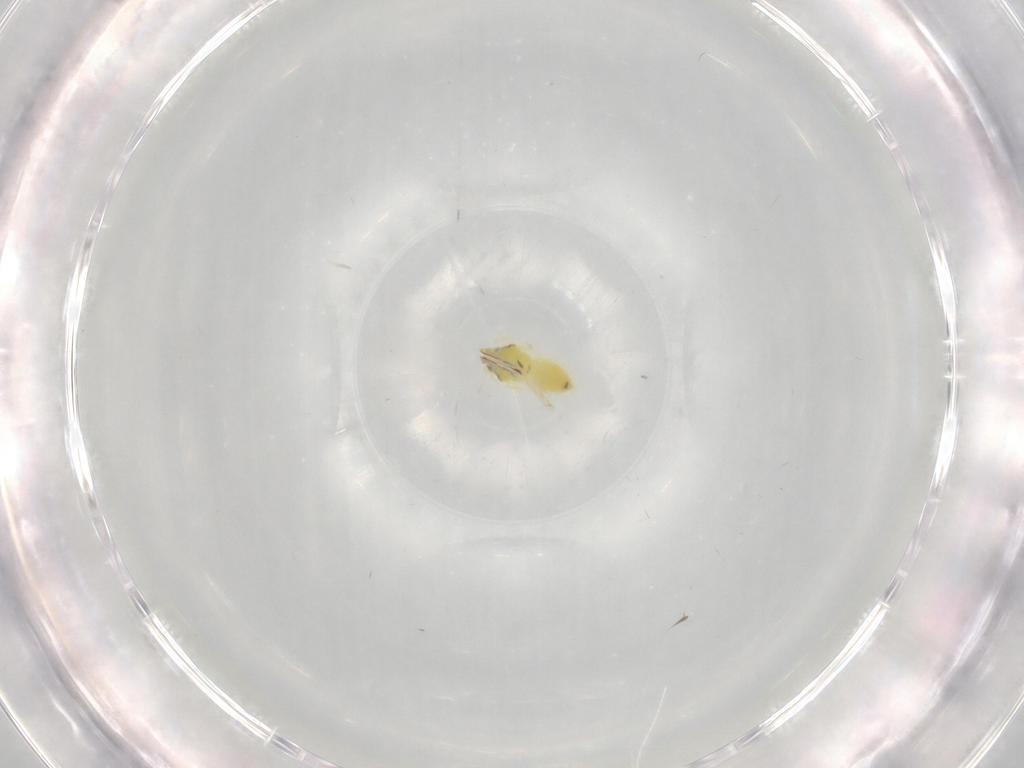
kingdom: Animalia
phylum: Arthropoda
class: Insecta
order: Hemiptera
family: Aleyrodidae
